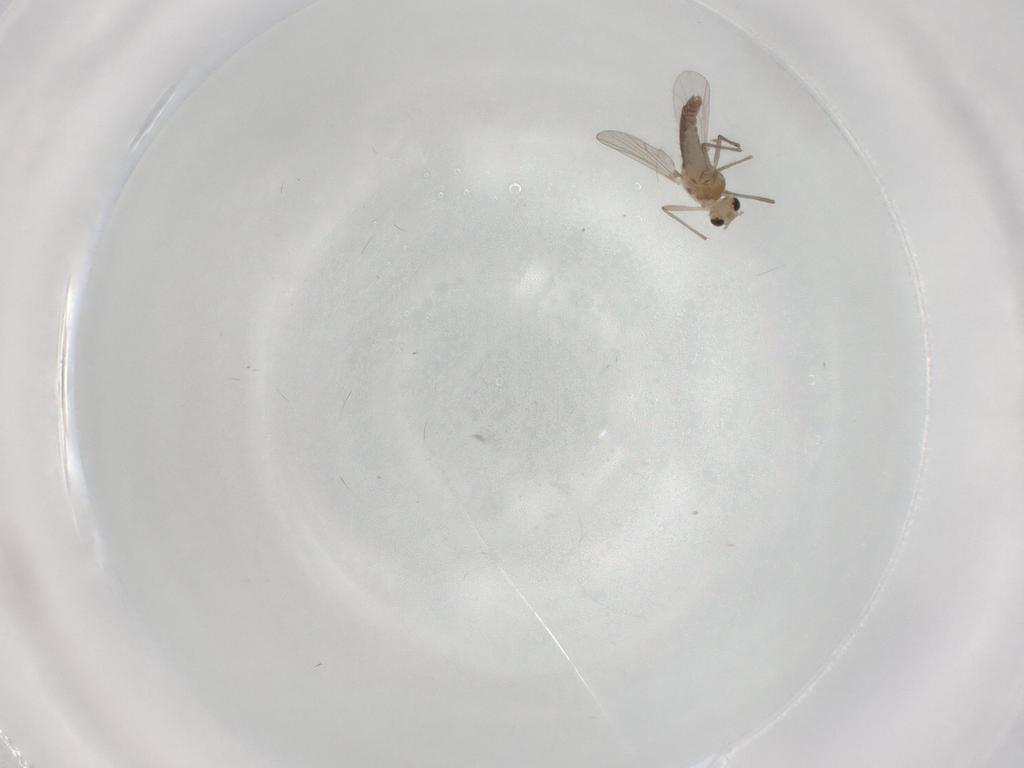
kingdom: Animalia
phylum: Arthropoda
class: Insecta
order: Diptera
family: Chironomidae
